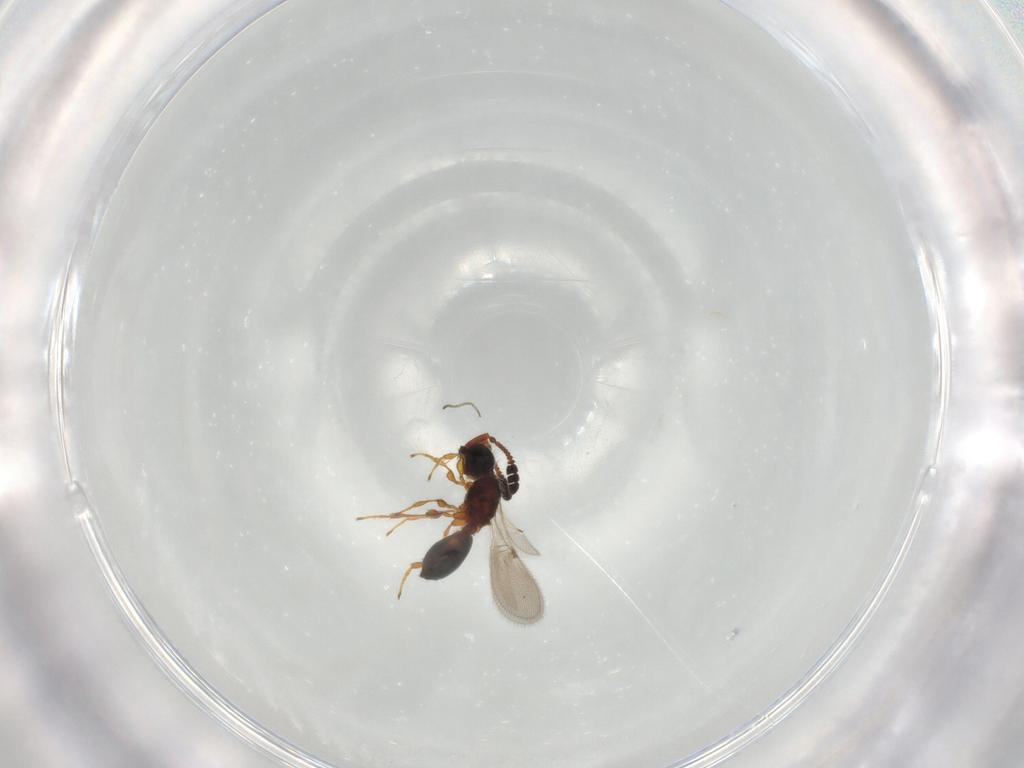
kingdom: Animalia
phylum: Arthropoda
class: Insecta
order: Hymenoptera
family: Diapriidae
